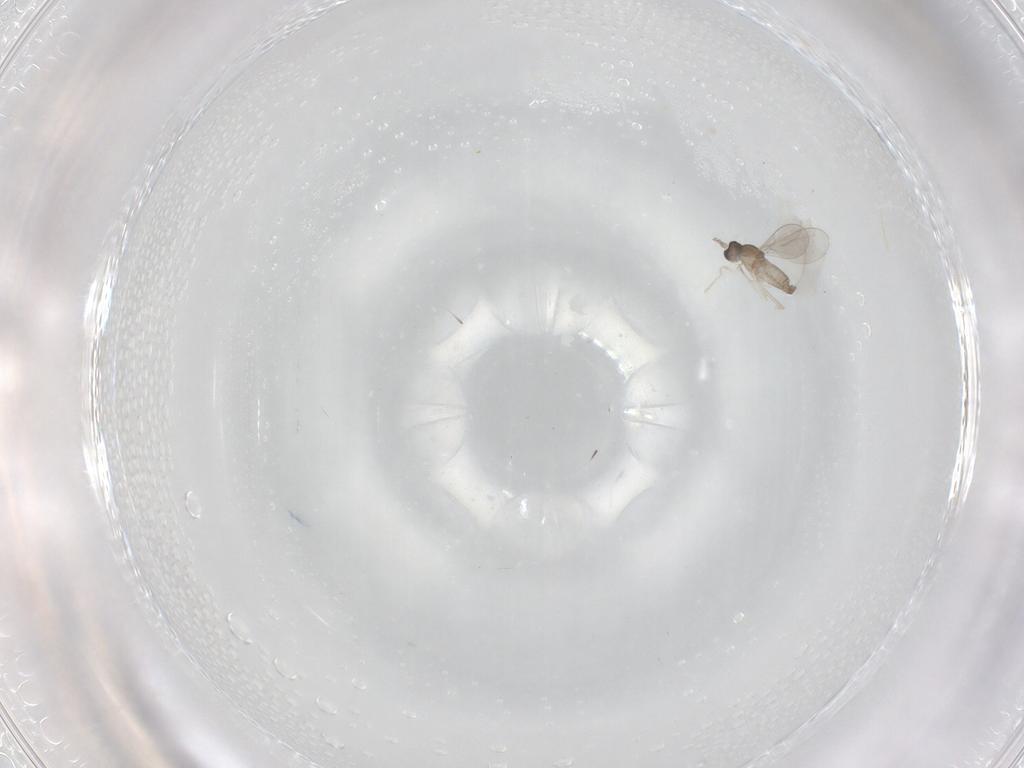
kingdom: Animalia
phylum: Arthropoda
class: Insecta
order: Diptera
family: Cecidomyiidae
